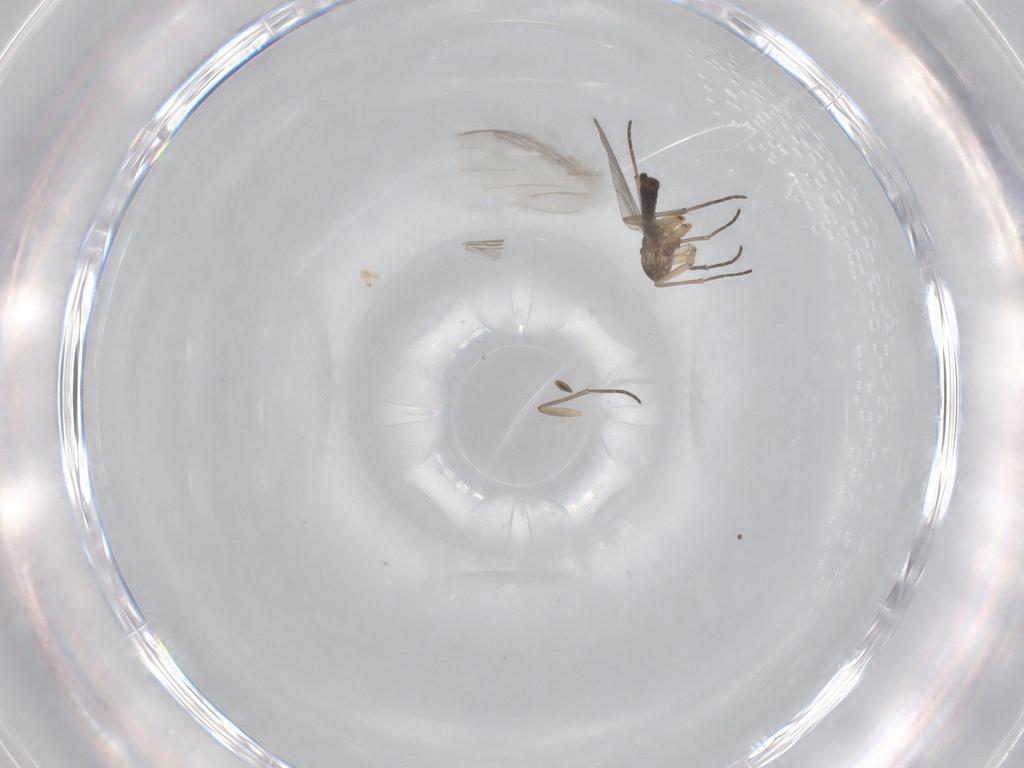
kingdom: Animalia
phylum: Arthropoda
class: Insecta
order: Diptera
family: Sciaridae
